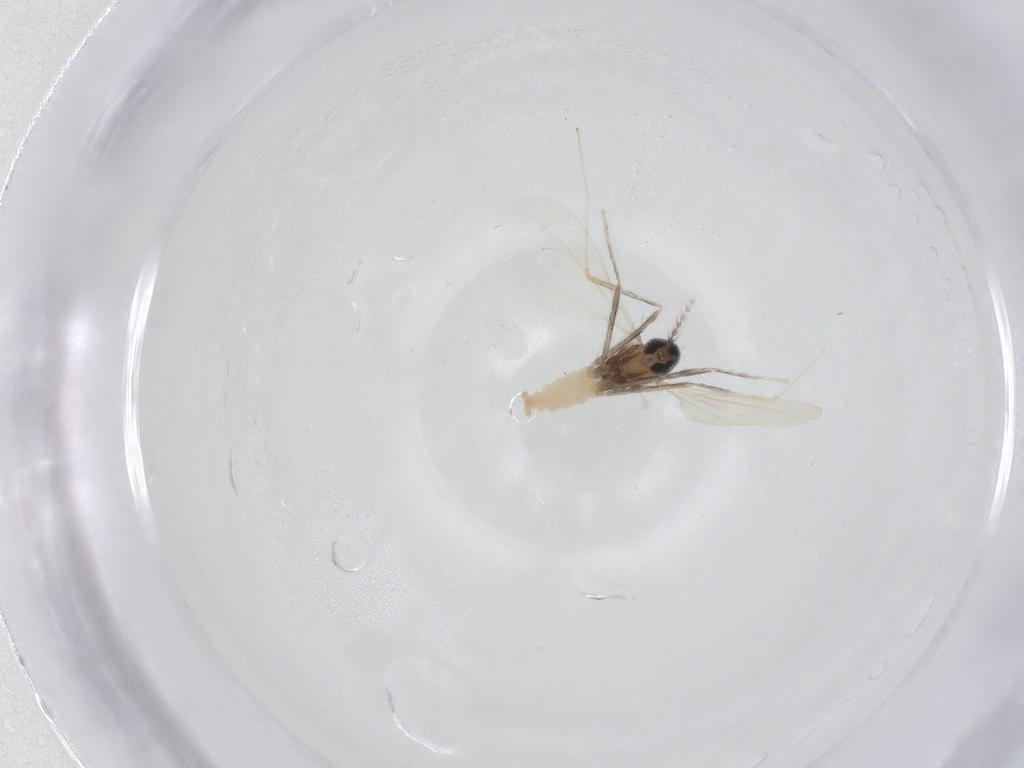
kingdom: Animalia
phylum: Arthropoda
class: Insecta
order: Diptera
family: Cecidomyiidae
